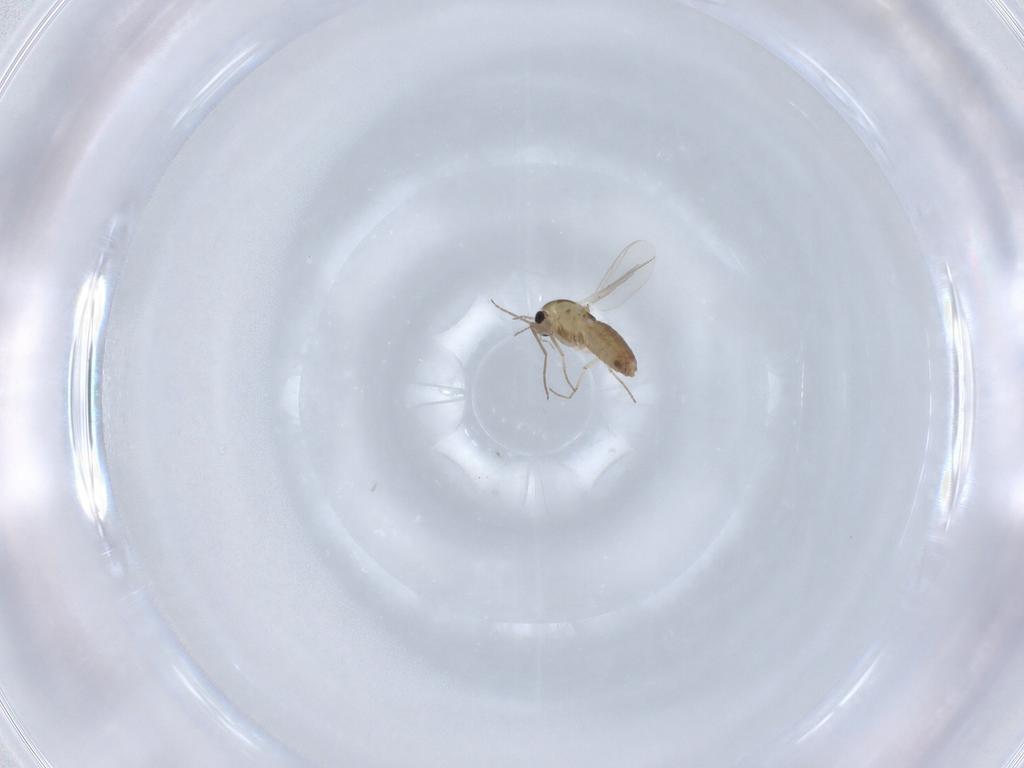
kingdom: Animalia
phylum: Arthropoda
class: Insecta
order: Diptera
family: Chironomidae
